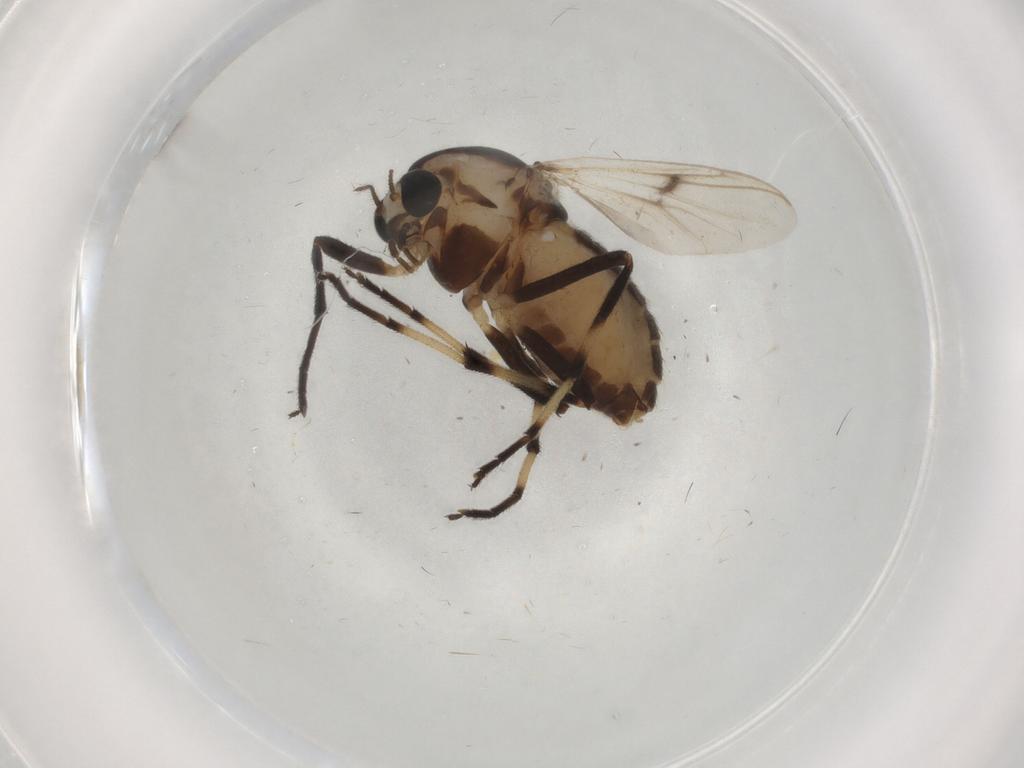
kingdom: Animalia
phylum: Arthropoda
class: Insecta
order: Diptera
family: Chironomidae
